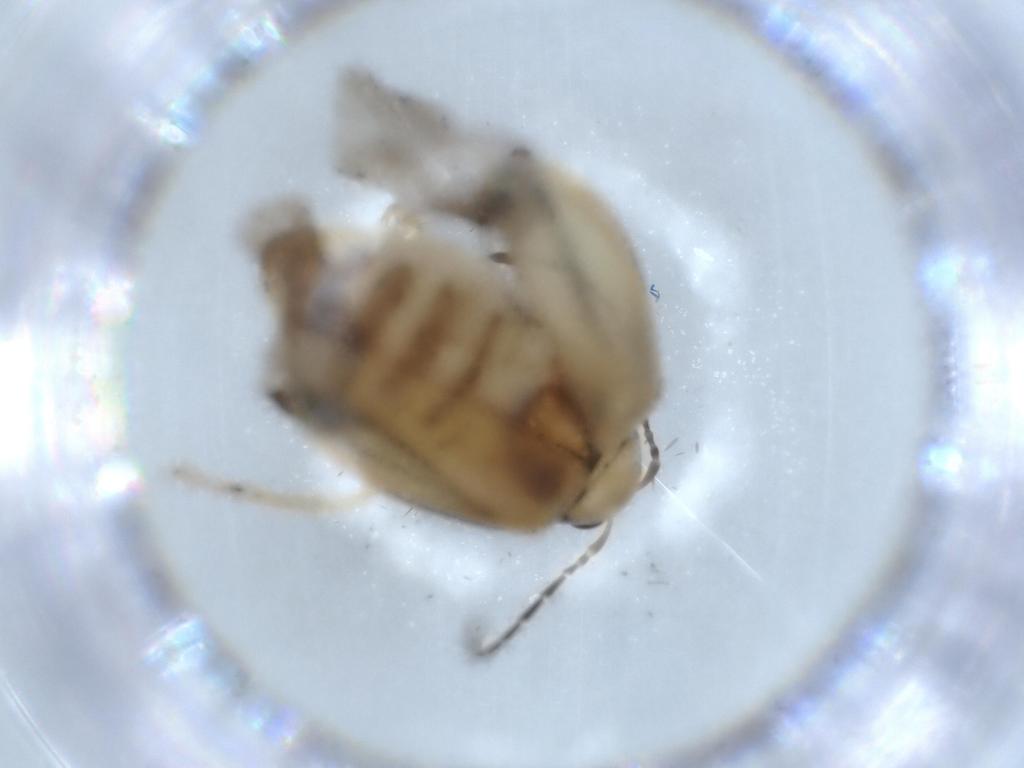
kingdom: Animalia
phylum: Arthropoda
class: Insecta
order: Coleoptera
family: Chrysomelidae
